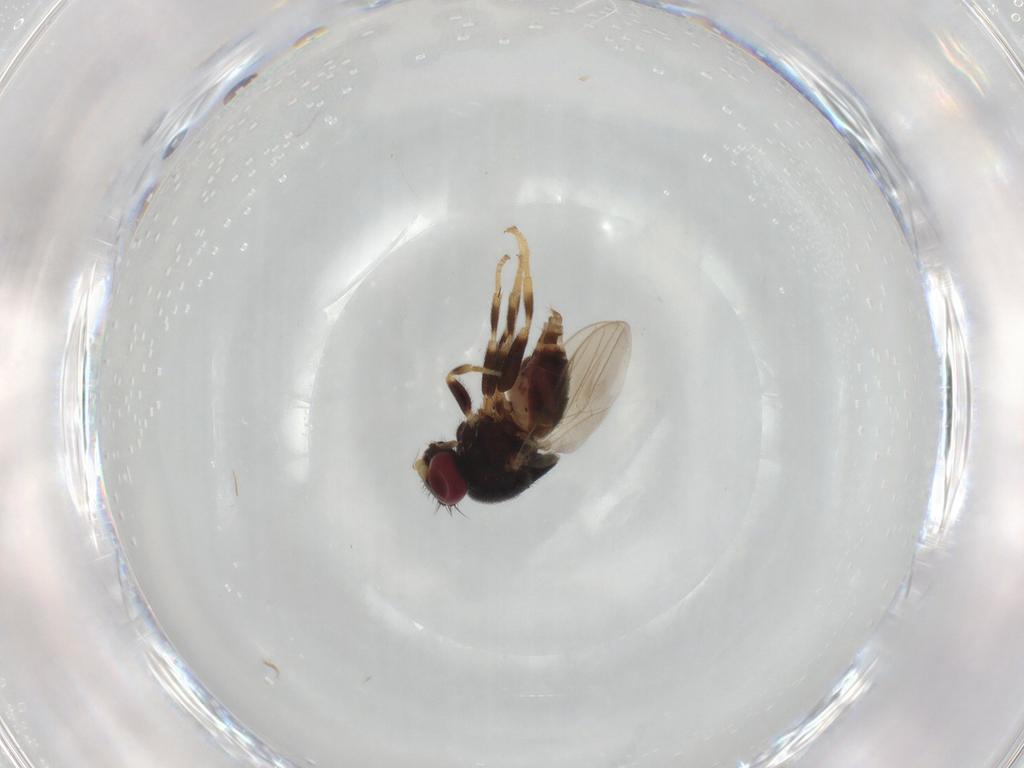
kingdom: Animalia
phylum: Arthropoda
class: Insecta
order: Diptera
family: Chloropidae
